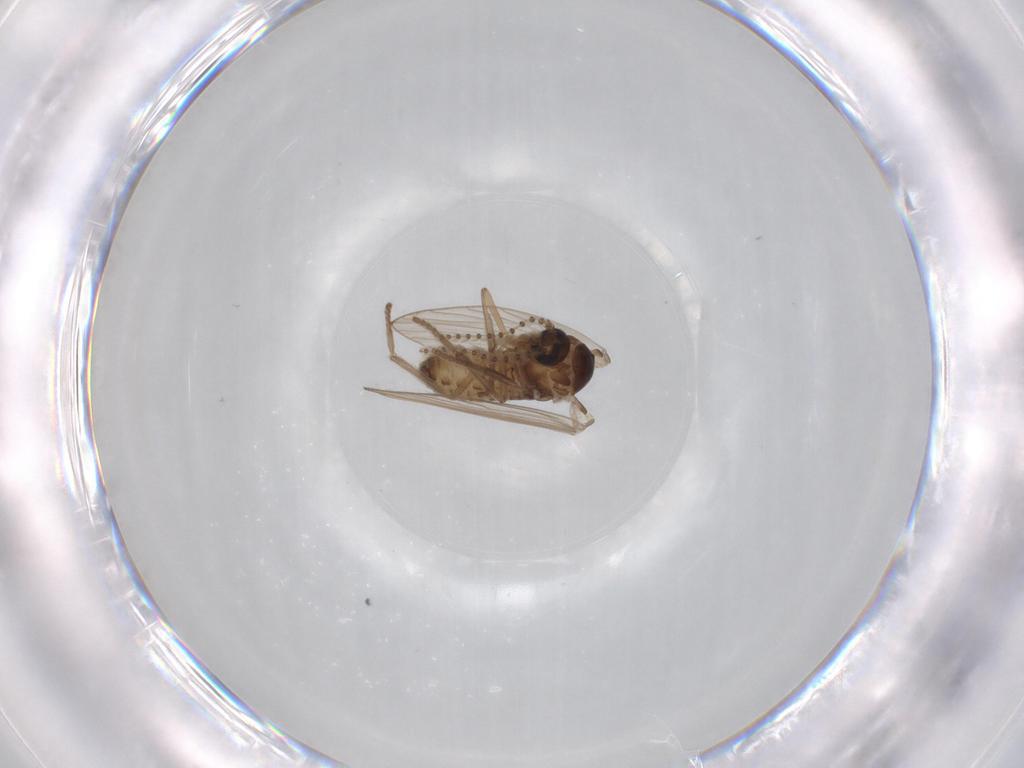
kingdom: Animalia
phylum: Arthropoda
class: Insecta
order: Diptera
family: Psychodidae
